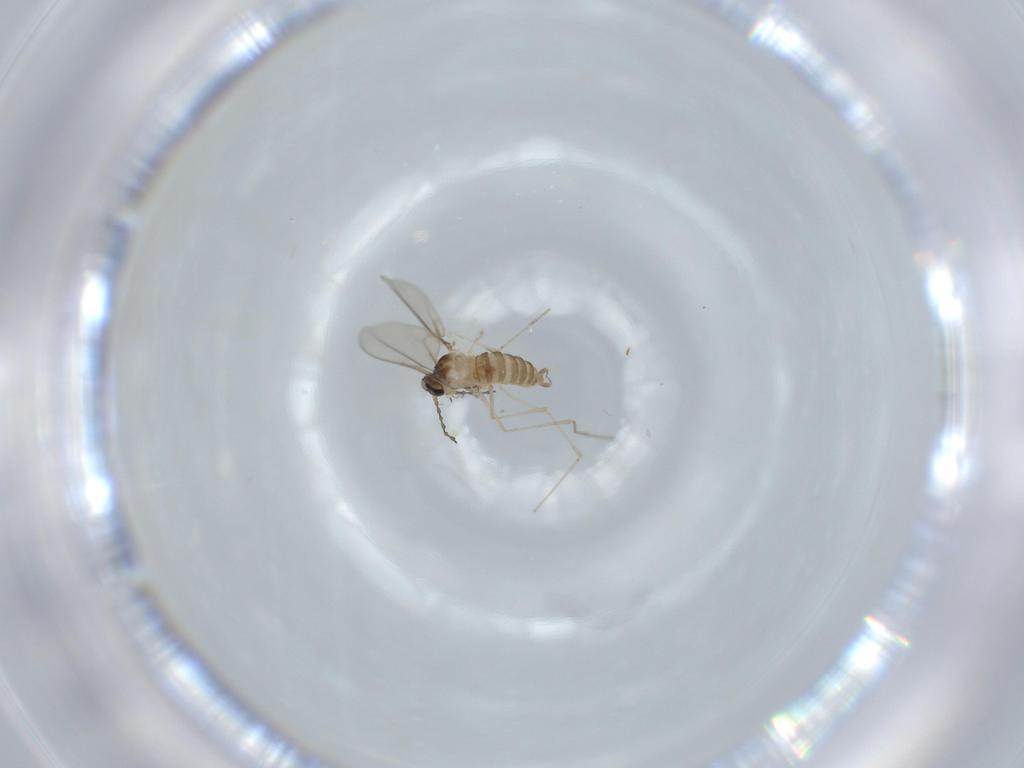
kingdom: Animalia
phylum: Arthropoda
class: Insecta
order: Diptera
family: Cecidomyiidae
